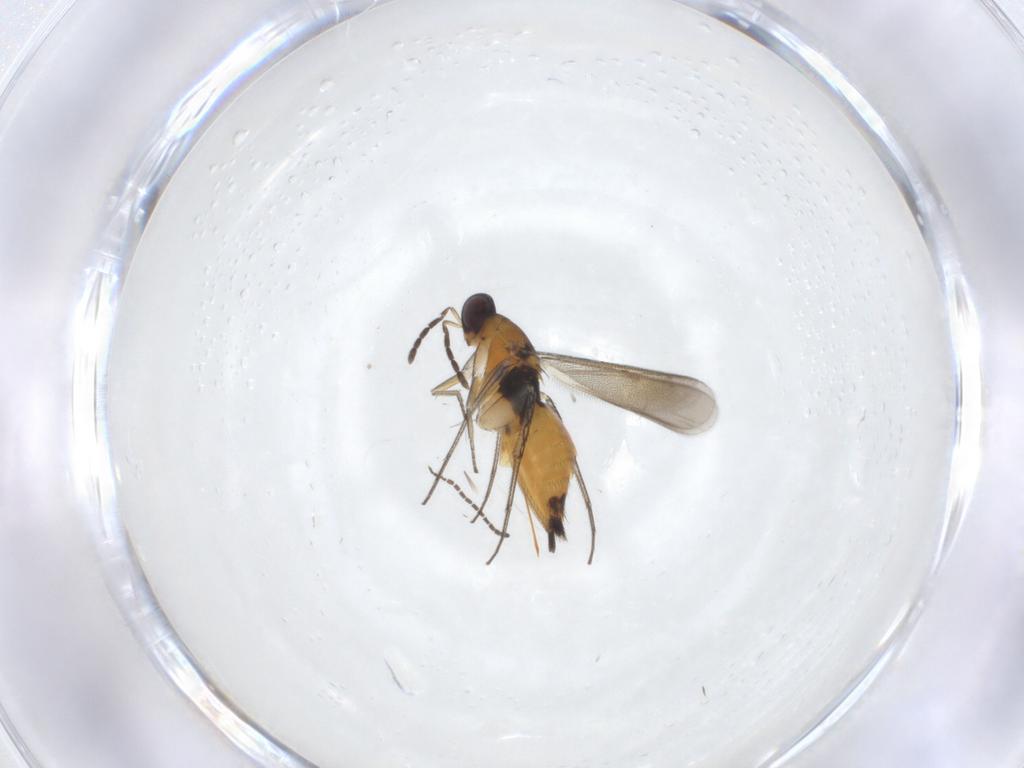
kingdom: Animalia
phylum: Arthropoda
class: Insecta
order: Hymenoptera
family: Eulophidae
